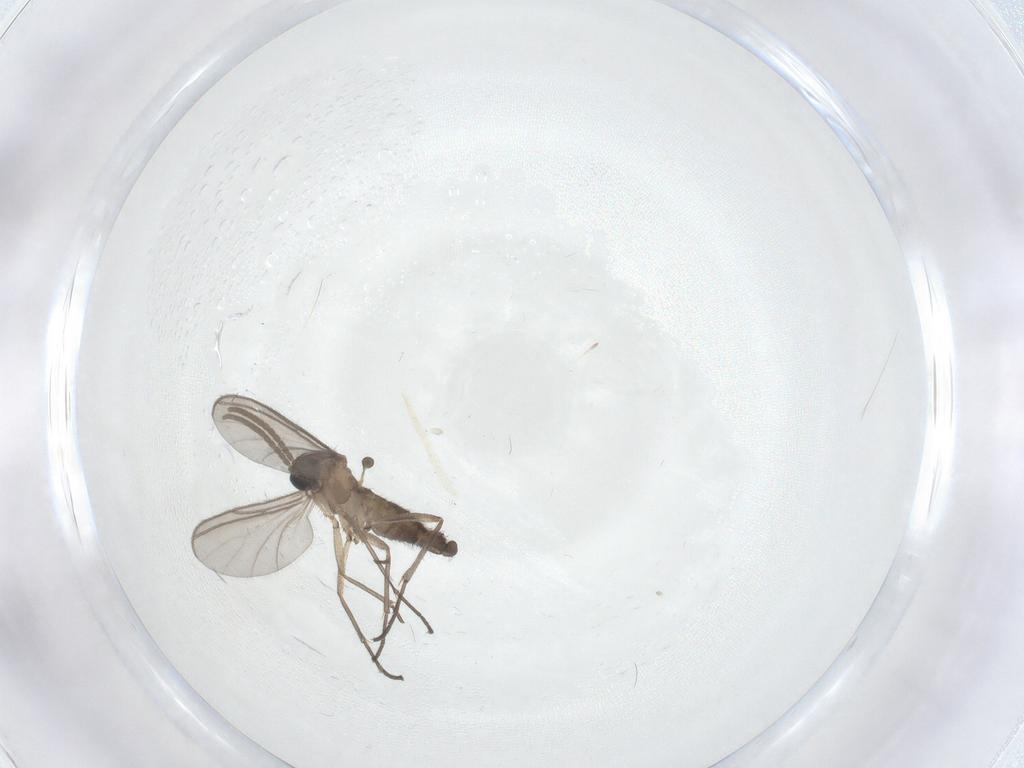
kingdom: Animalia
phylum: Arthropoda
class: Insecta
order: Diptera
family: Sciaridae
